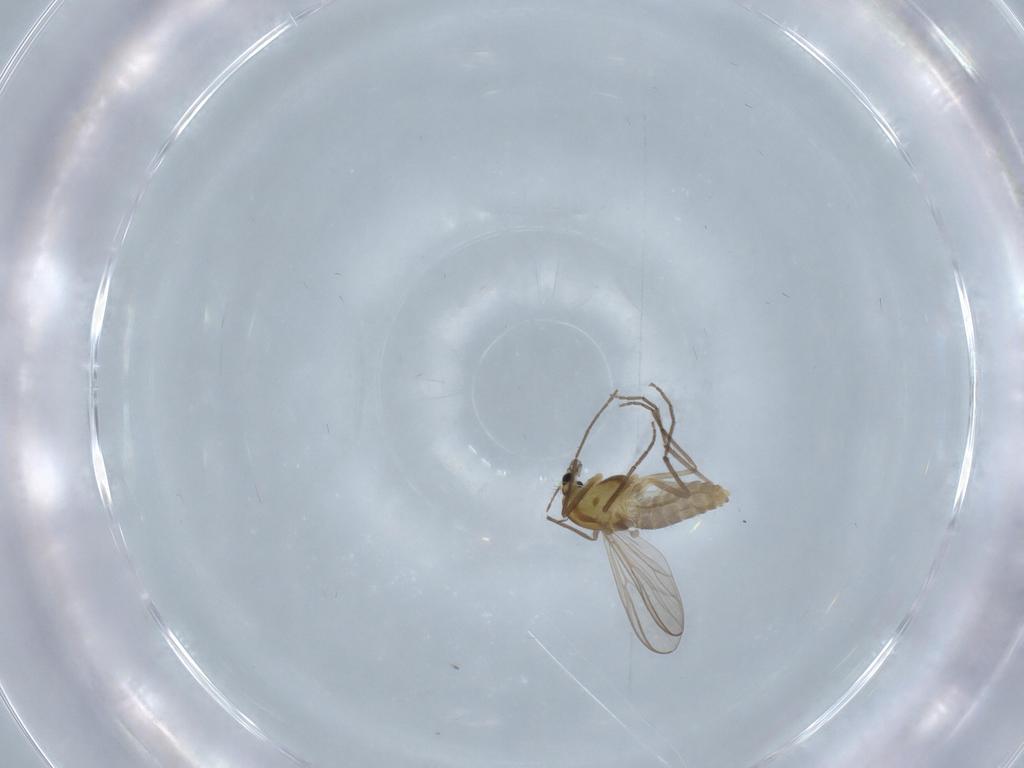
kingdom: Animalia
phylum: Arthropoda
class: Insecta
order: Diptera
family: Chironomidae
